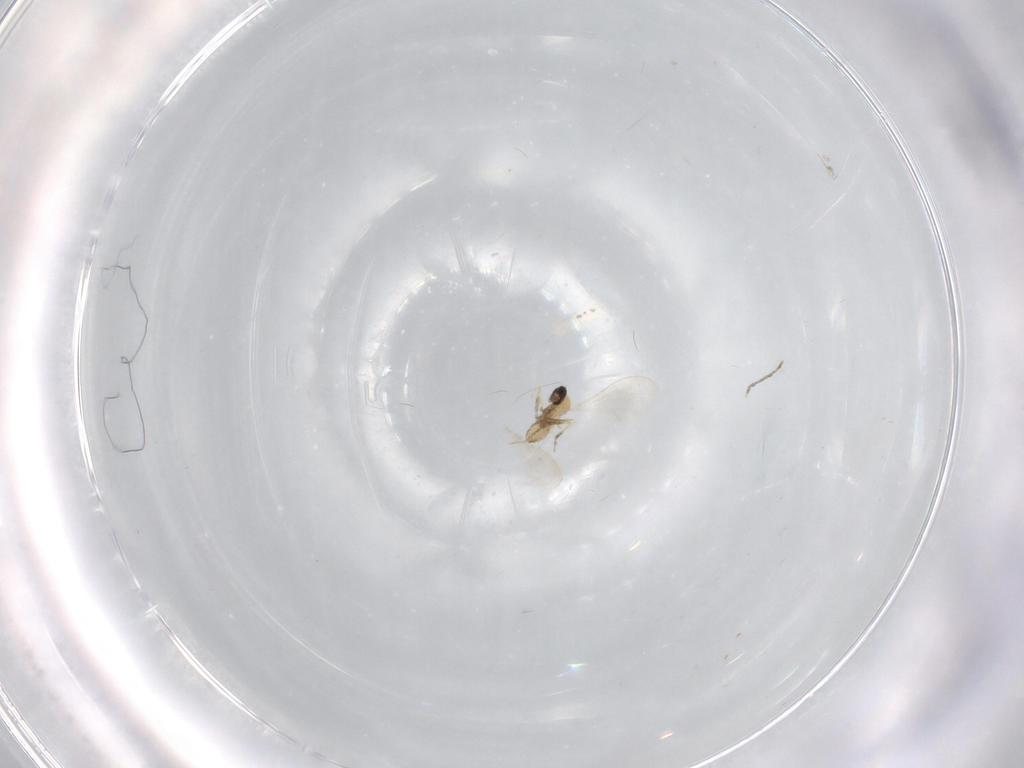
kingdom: Animalia
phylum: Arthropoda
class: Insecta
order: Diptera
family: Cecidomyiidae
